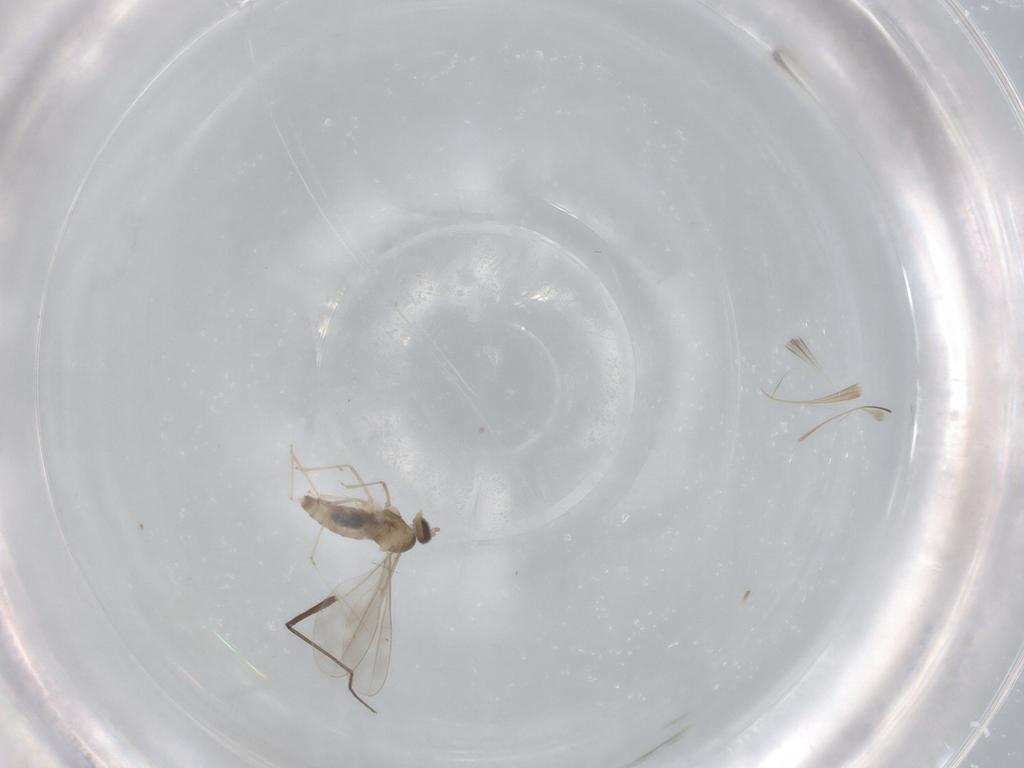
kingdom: Animalia
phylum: Arthropoda
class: Insecta
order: Diptera
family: Chironomidae
